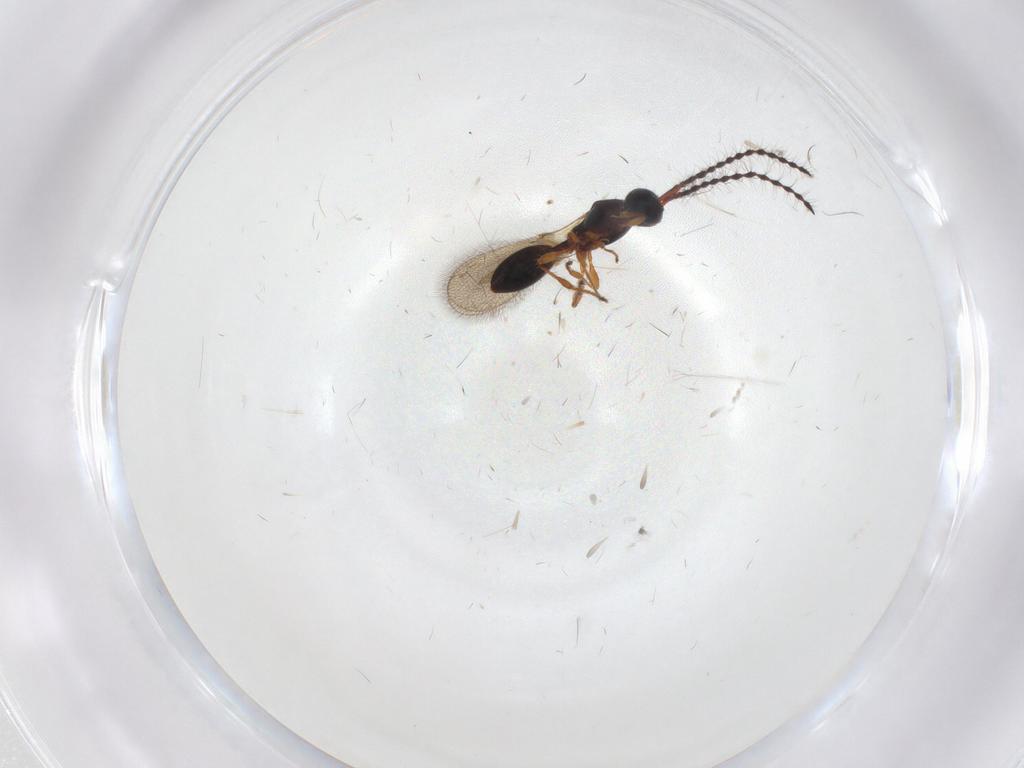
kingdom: Animalia
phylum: Arthropoda
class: Insecta
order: Hymenoptera
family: Diapriidae
